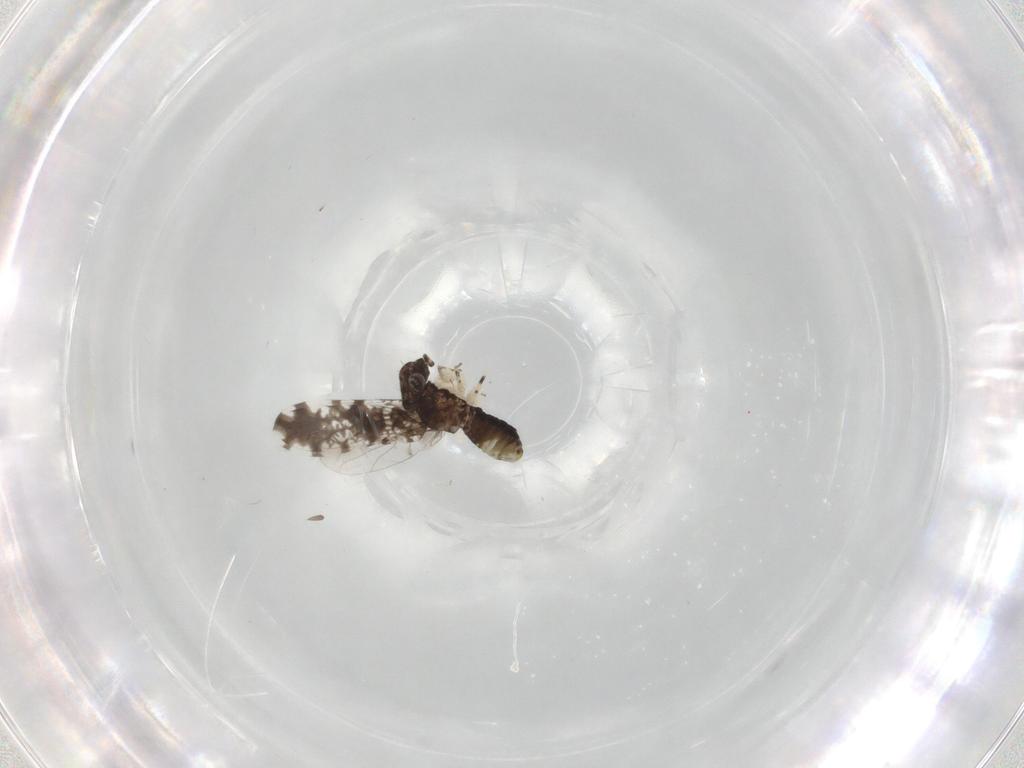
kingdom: Animalia
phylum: Arthropoda
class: Insecta
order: Psocodea
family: Psoquillidae
